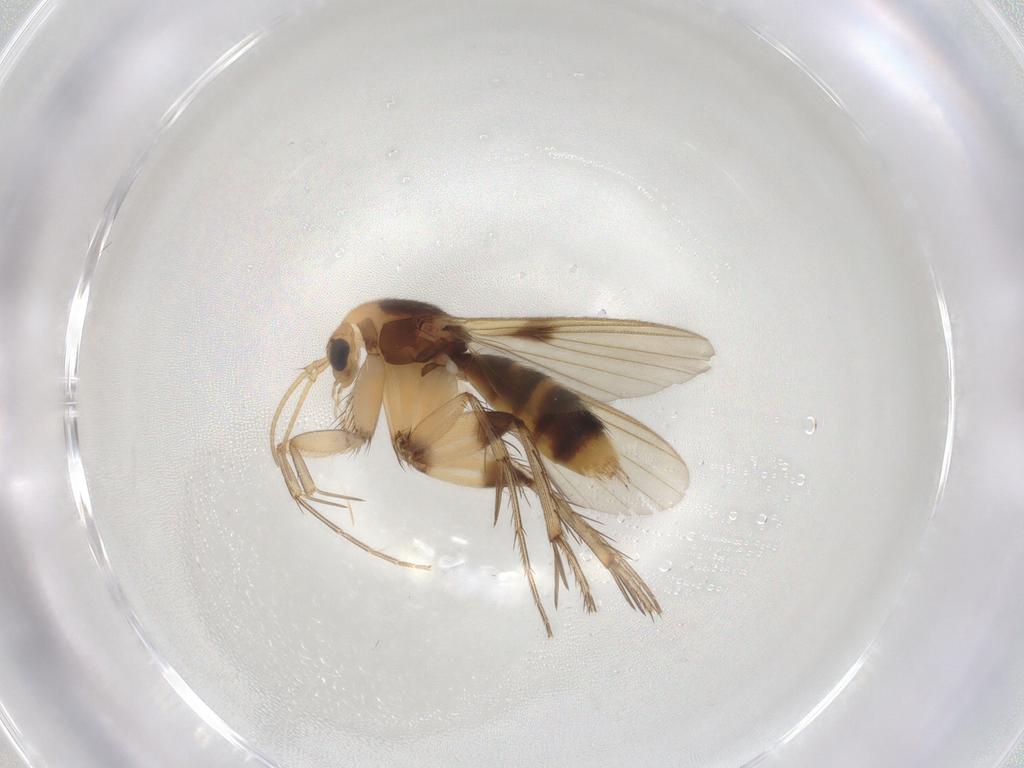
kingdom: Animalia
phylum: Arthropoda
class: Insecta
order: Diptera
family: Mycetophilidae
